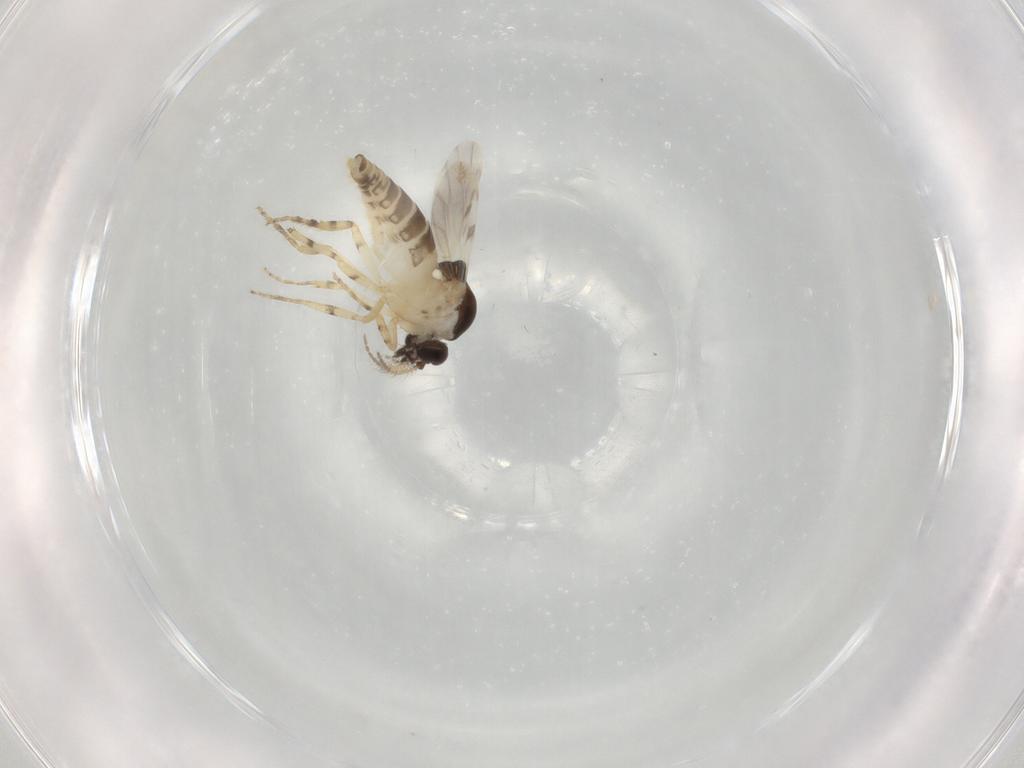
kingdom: Animalia
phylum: Arthropoda
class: Insecta
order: Diptera
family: Ceratopogonidae
